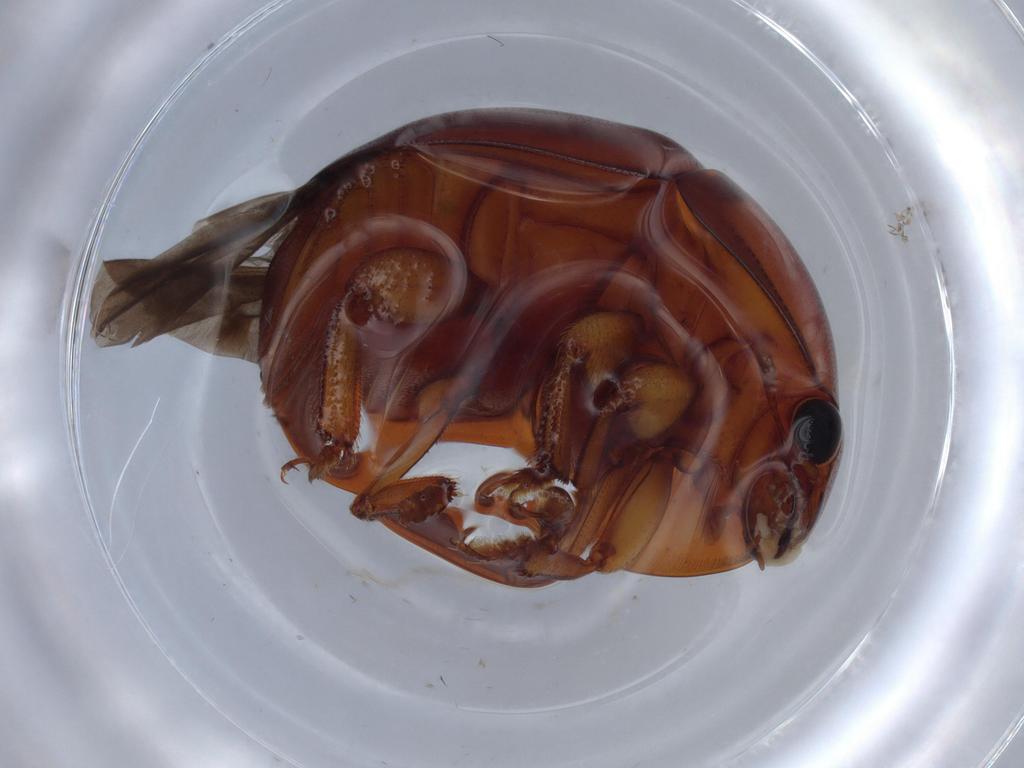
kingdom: Animalia
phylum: Arthropoda
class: Insecta
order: Coleoptera
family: Nitidulidae
